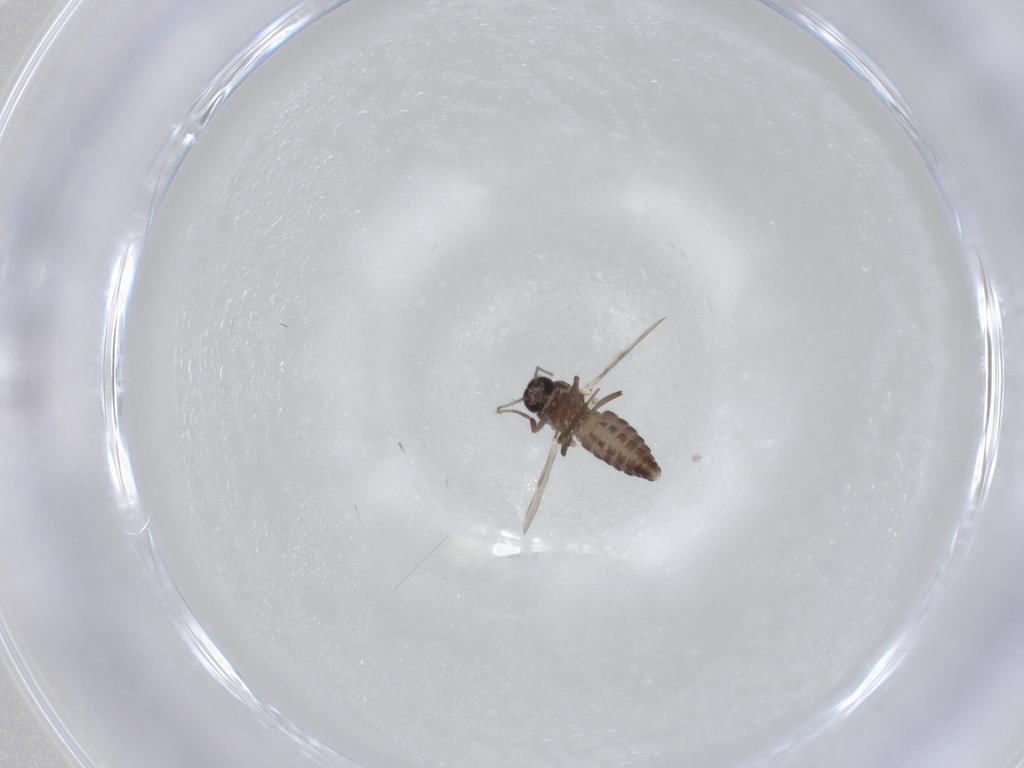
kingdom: Animalia
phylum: Arthropoda
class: Insecta
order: Diptera
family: Ceratopogonidae
